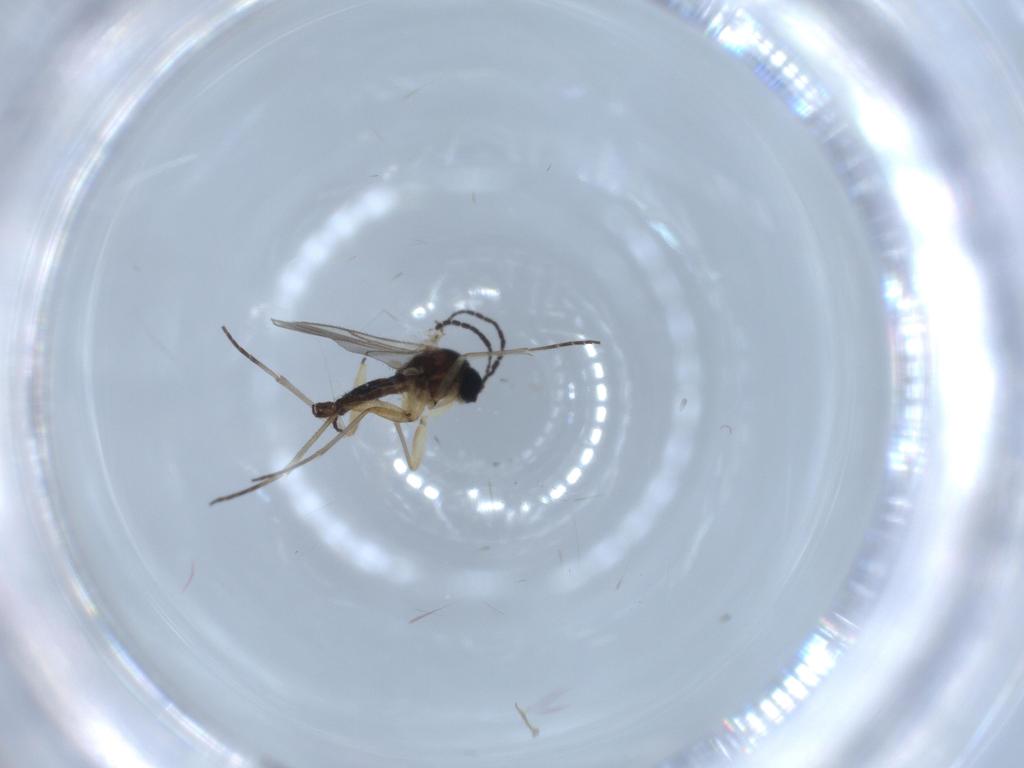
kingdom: Animalia
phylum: Arthropoda
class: Insecta
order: Diptera
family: Sciaridae
